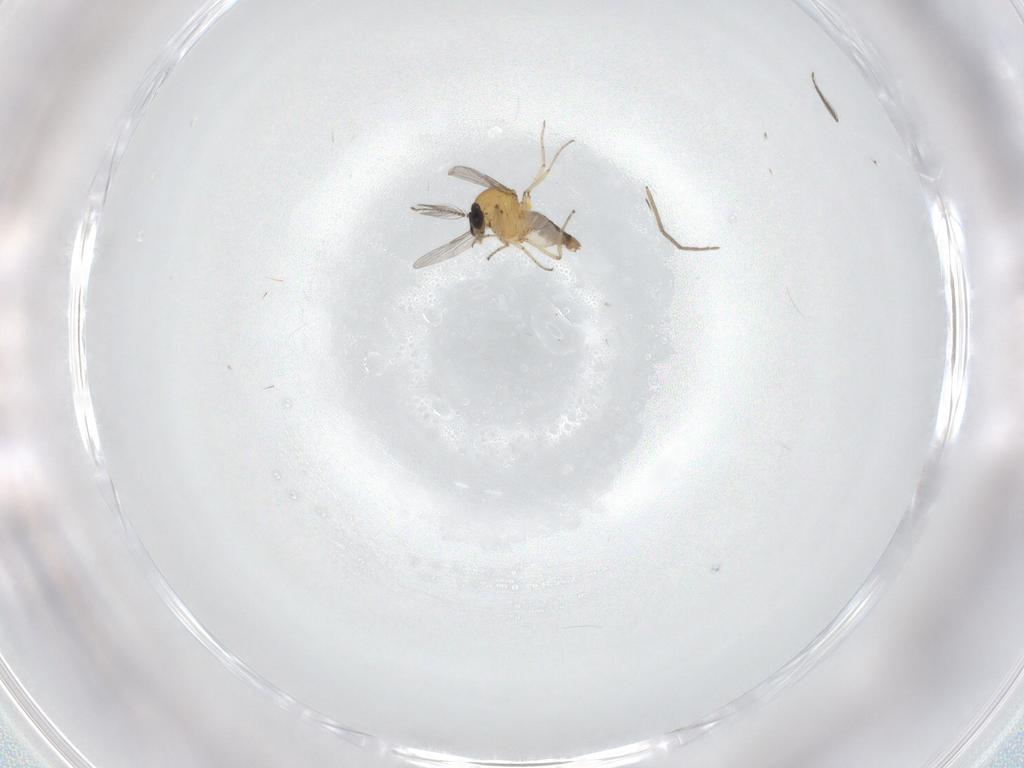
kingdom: Animalia
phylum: Arthropoda
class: Insecta
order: Diptera
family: Ceratopogonidae
